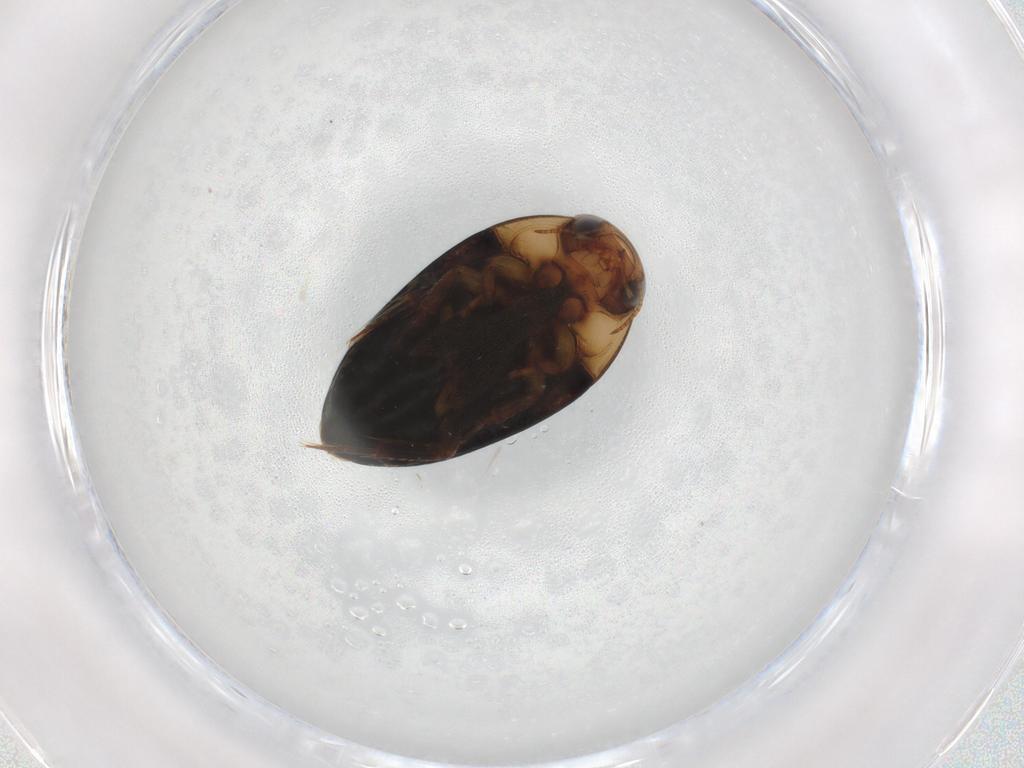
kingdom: Animalia
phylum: Arthropoda
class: Insecta
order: Coleoptera
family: Noteridae
